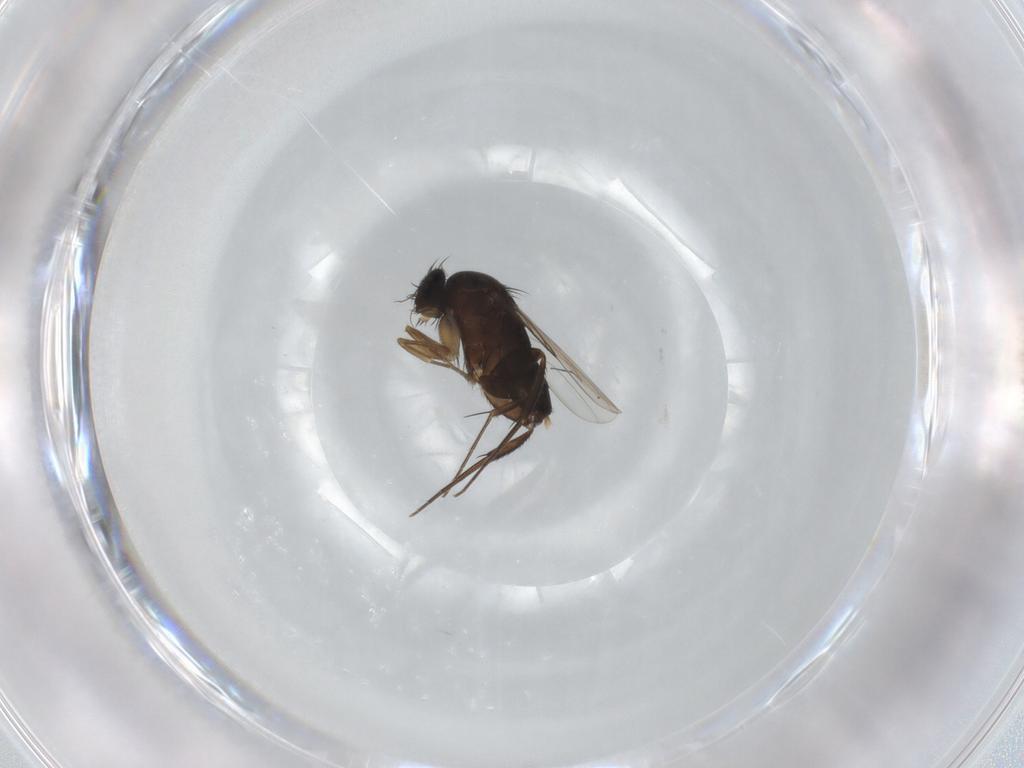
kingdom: Animalia
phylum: Arthropoda
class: Insecta
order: Diptera
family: Phoridae
